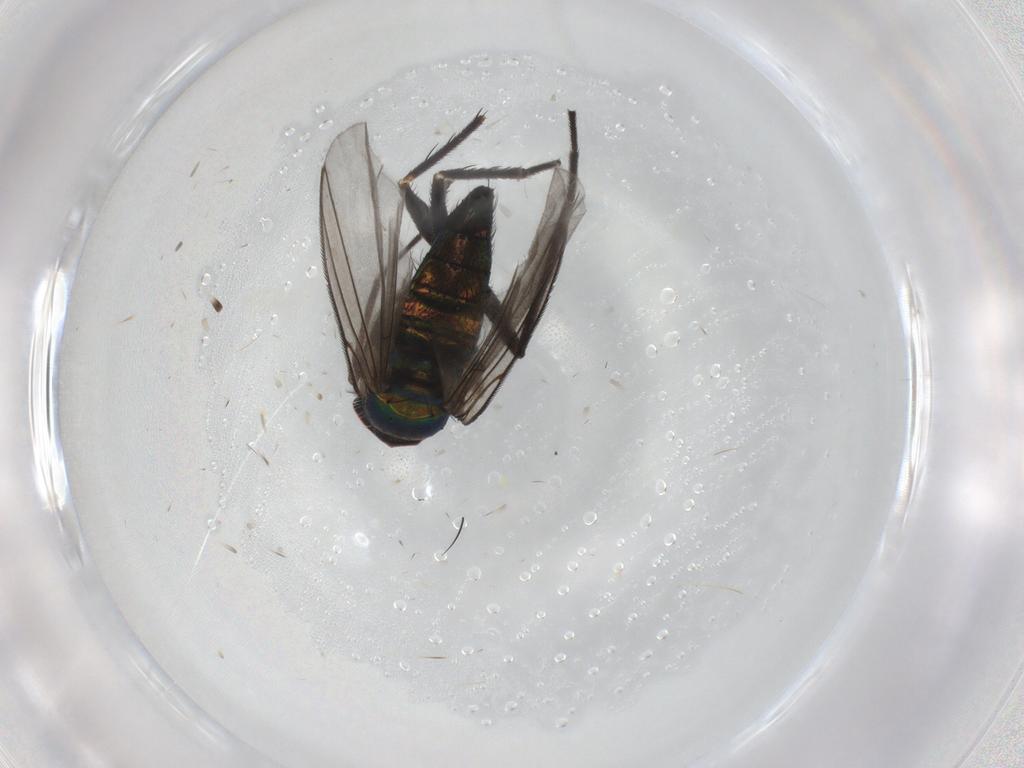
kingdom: Animalia
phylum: Arthropoda
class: Insecta
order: Diptera
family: Dolichopodidae
